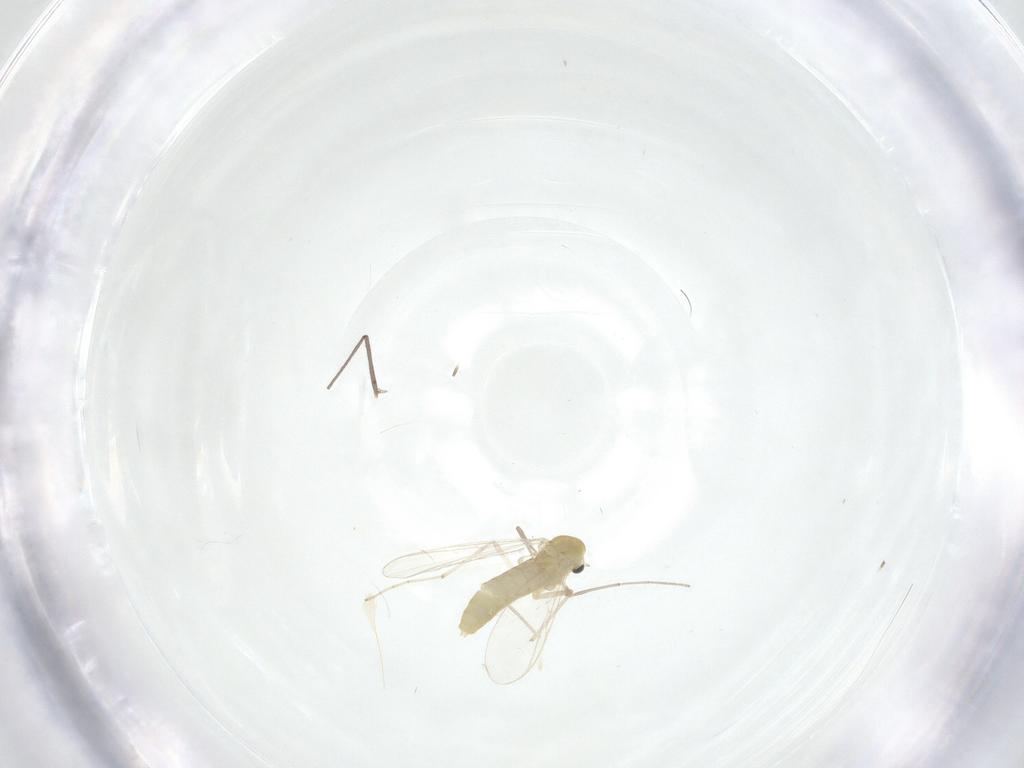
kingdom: Animalia
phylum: Arthropoda
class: Insecta
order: Diptera
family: Chironomidae
